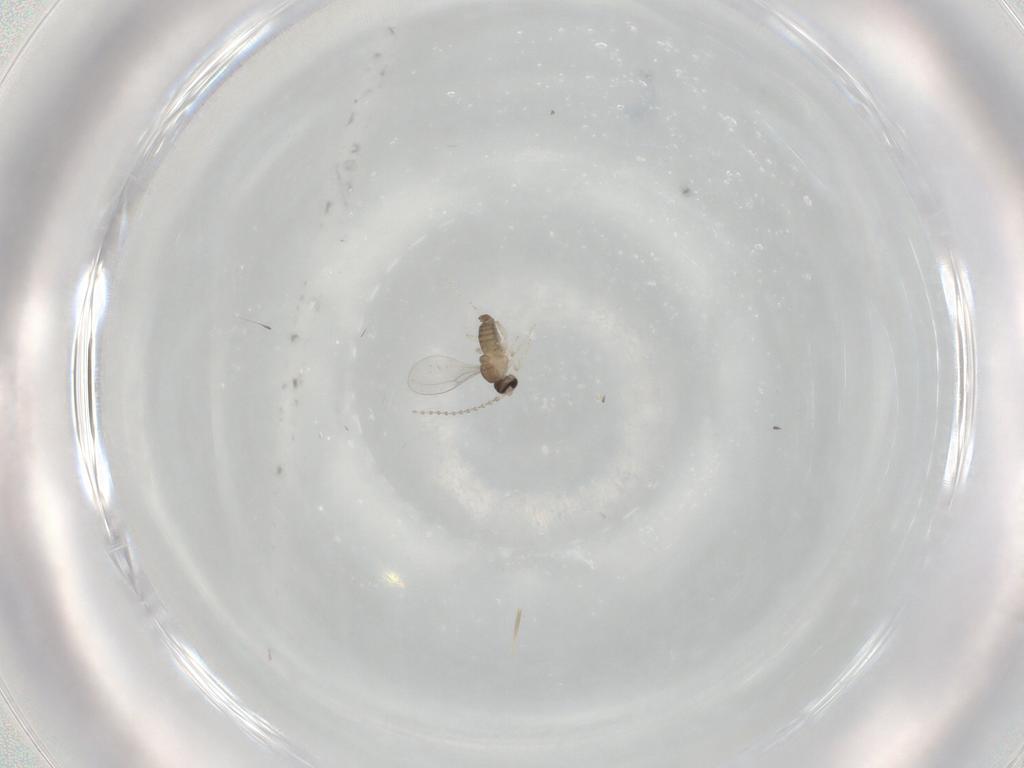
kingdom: Animalia
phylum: Arthropoda
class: Insecta
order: Diptera
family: Cecidomyiidae
